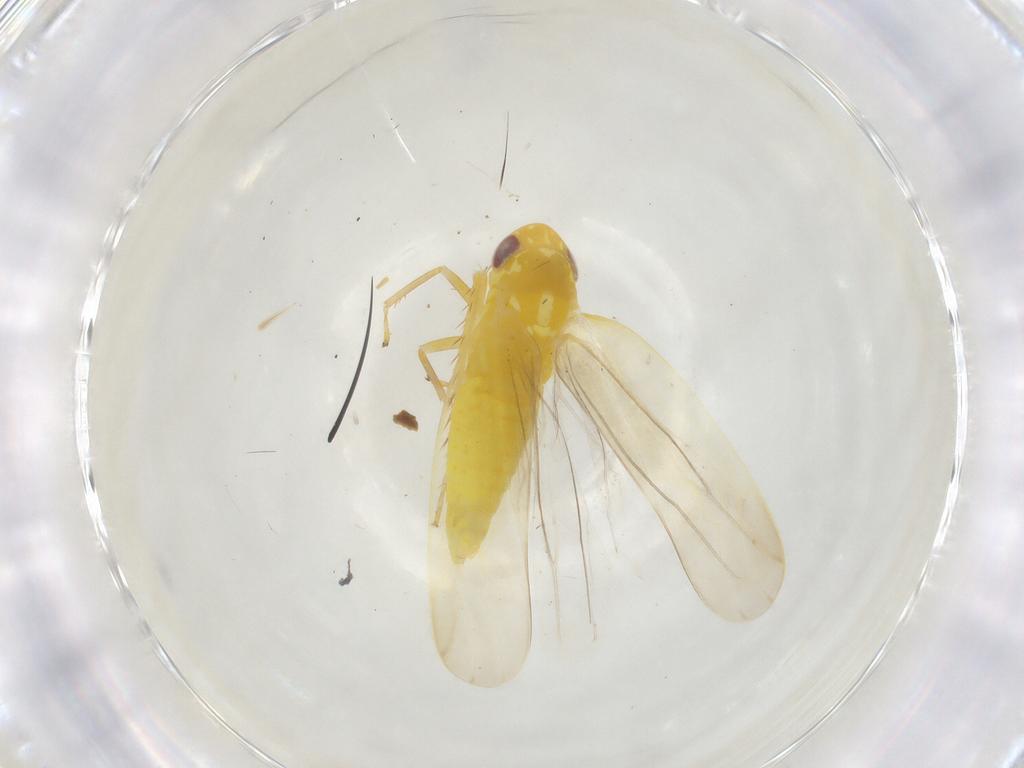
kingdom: Animalia
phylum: Arthropoda
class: Insecta
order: Hemiptera
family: Cicadellidae
